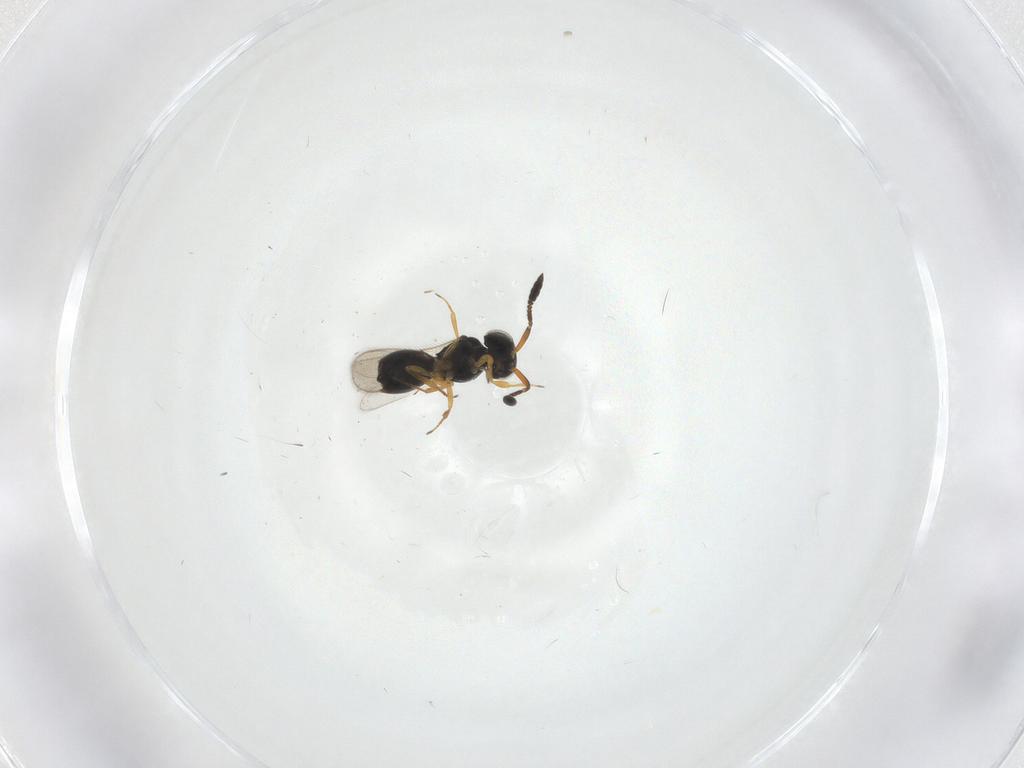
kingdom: Animalia
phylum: Arthropoda
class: Insecta
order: Hymenoptera
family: Scelionidae
